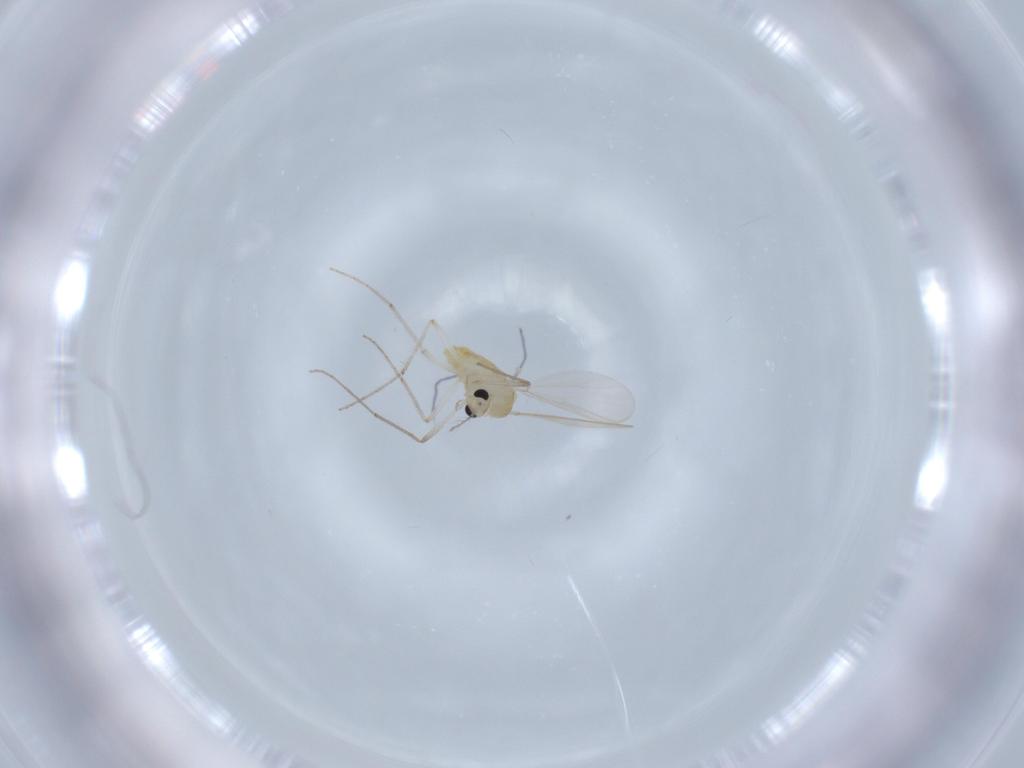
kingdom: Animalia
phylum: Arthropoda
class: Insecta
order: Diptera
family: Chironomidae
